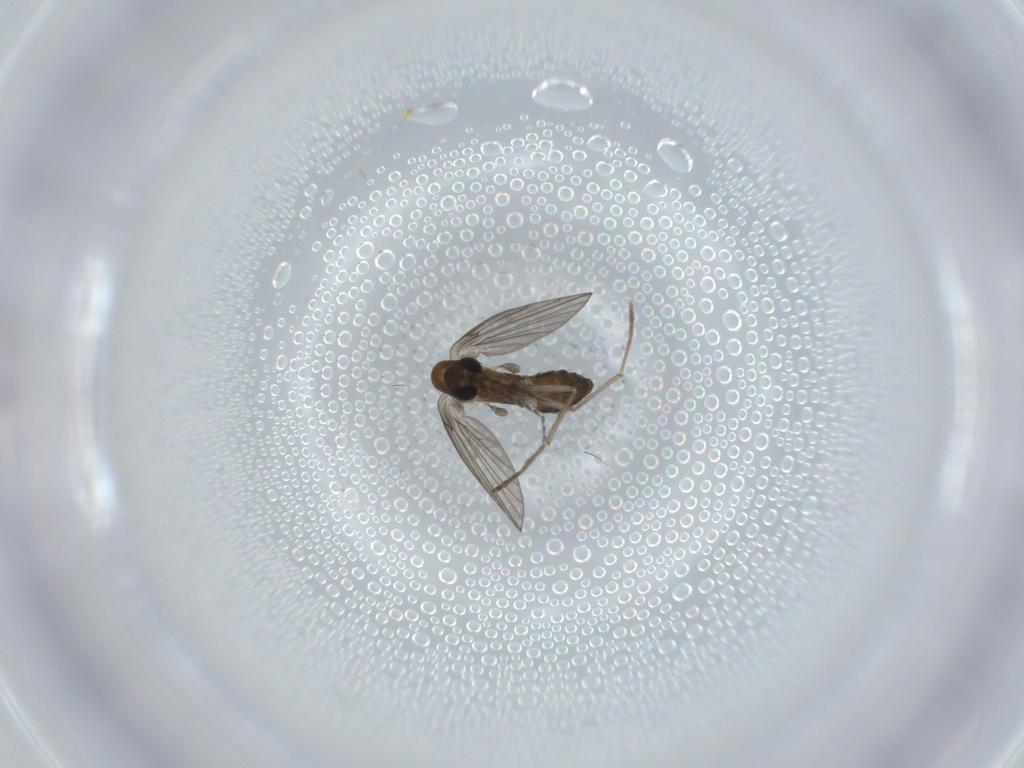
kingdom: Animalia
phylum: Arthropoda
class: Insecta
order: Diptera
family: Psychodidae
